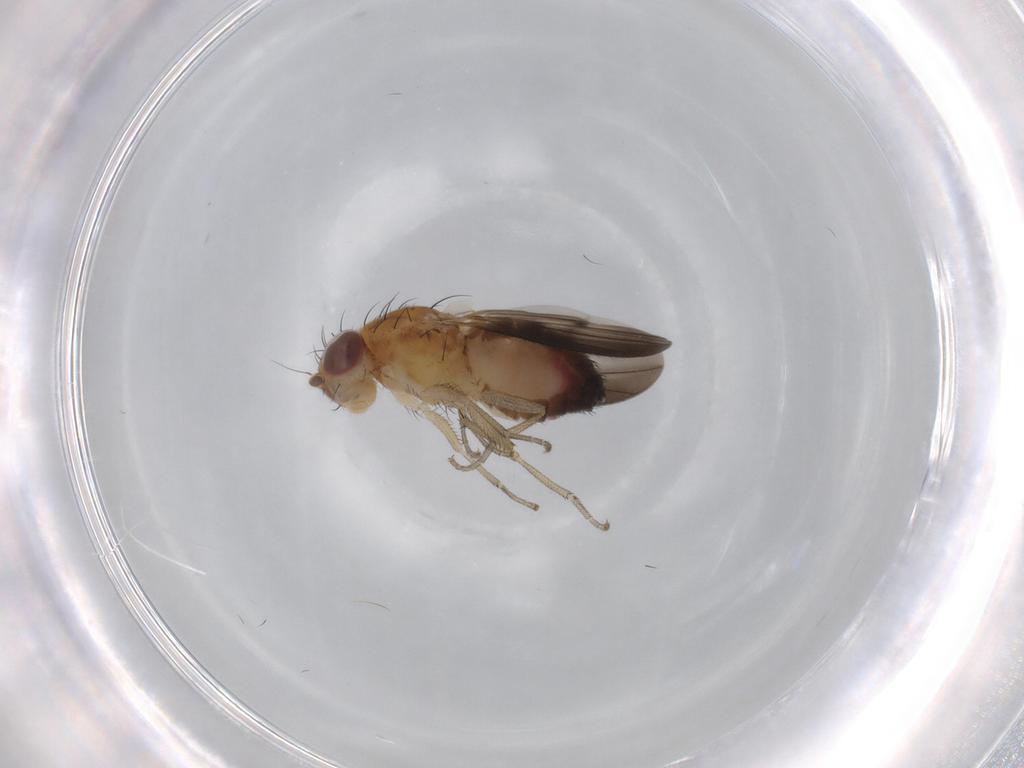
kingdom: Animalia
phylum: Arthropoda
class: Insecta
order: Diptera
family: Heleomyzidae
